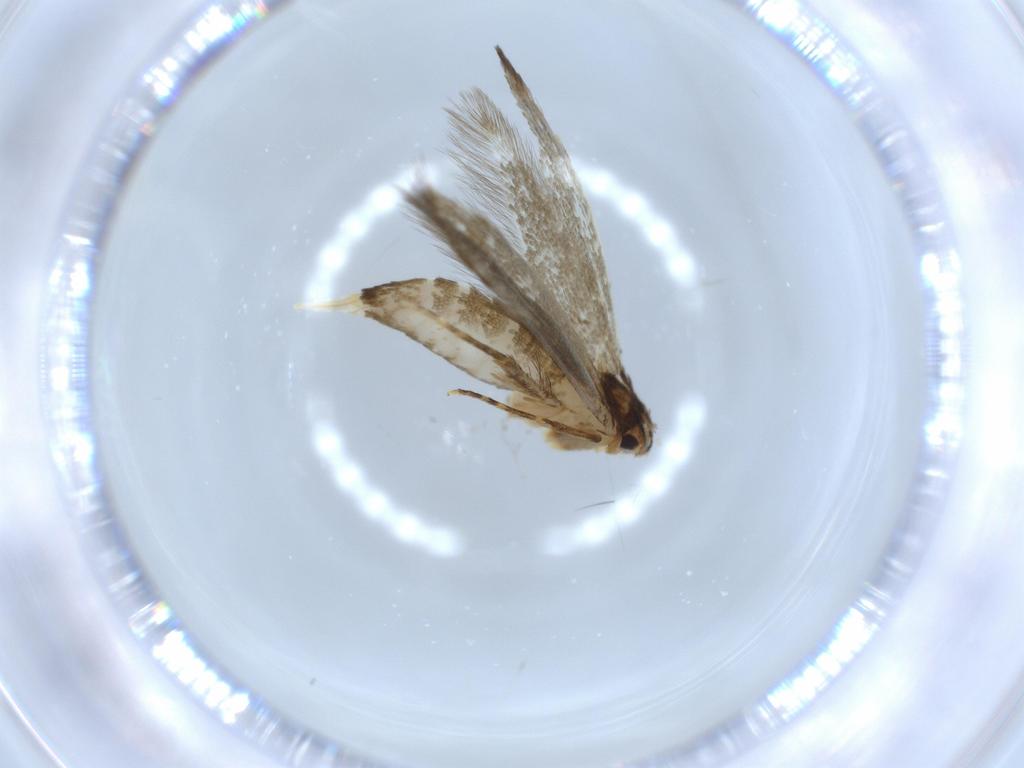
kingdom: Animalia
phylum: Arthropoda
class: Insecta
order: Lepidoptera
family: Tineidae
